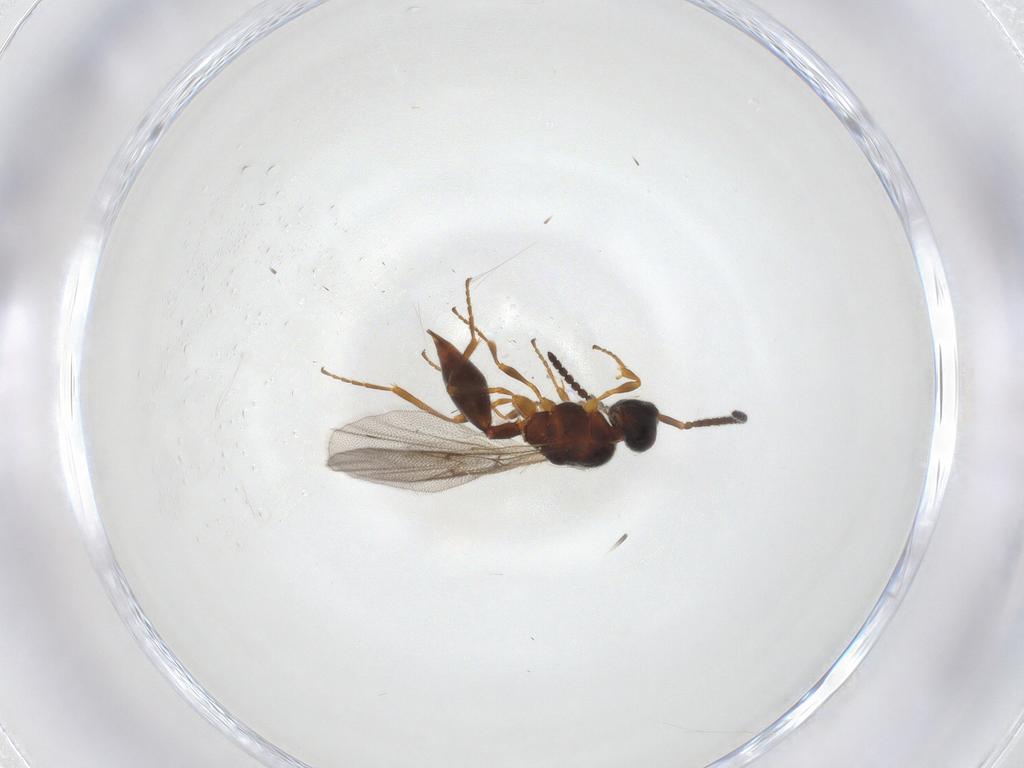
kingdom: Animalia
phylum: Arthropoda
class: Insecta
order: Hymenoptera
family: Diapriidae
